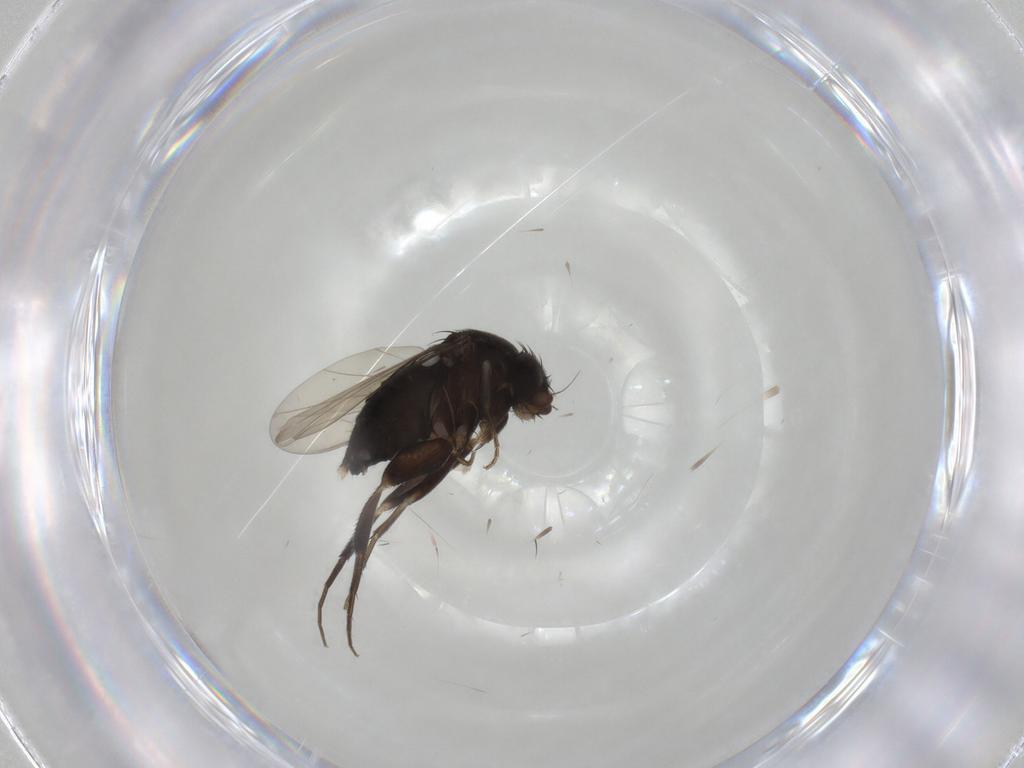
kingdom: Animalia
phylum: Arthropoda
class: Insecta
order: Diptera
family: Phoridae
